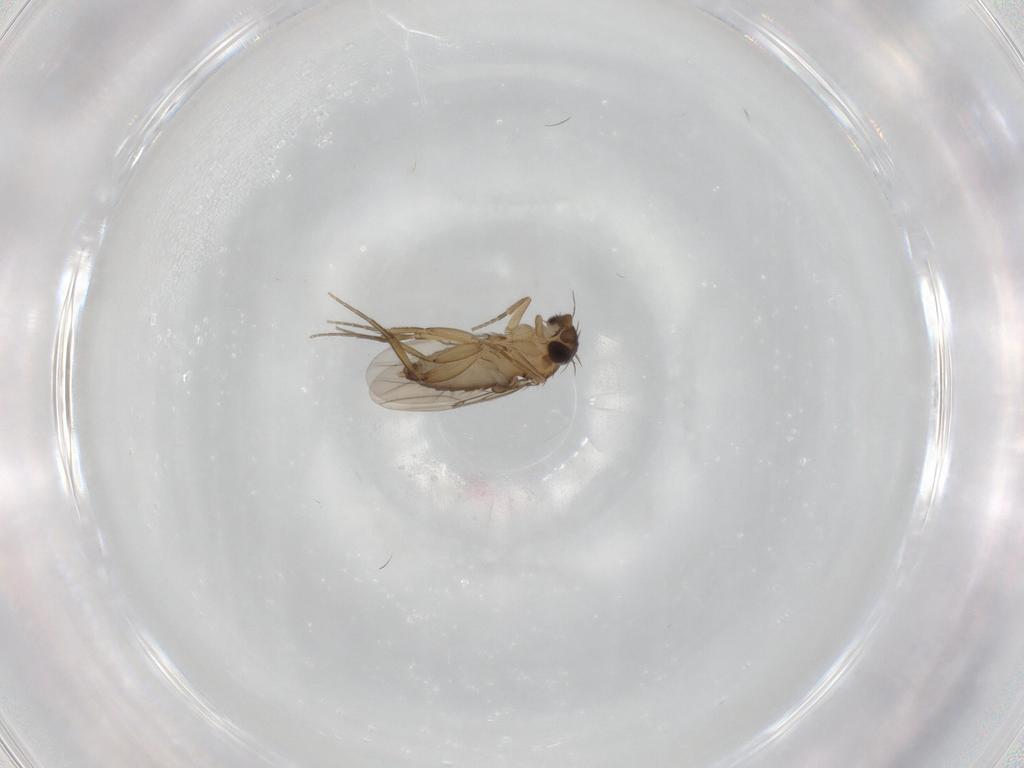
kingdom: Animalia
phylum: Arthropoda
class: Insecta
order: Diptera
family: Phoridae
